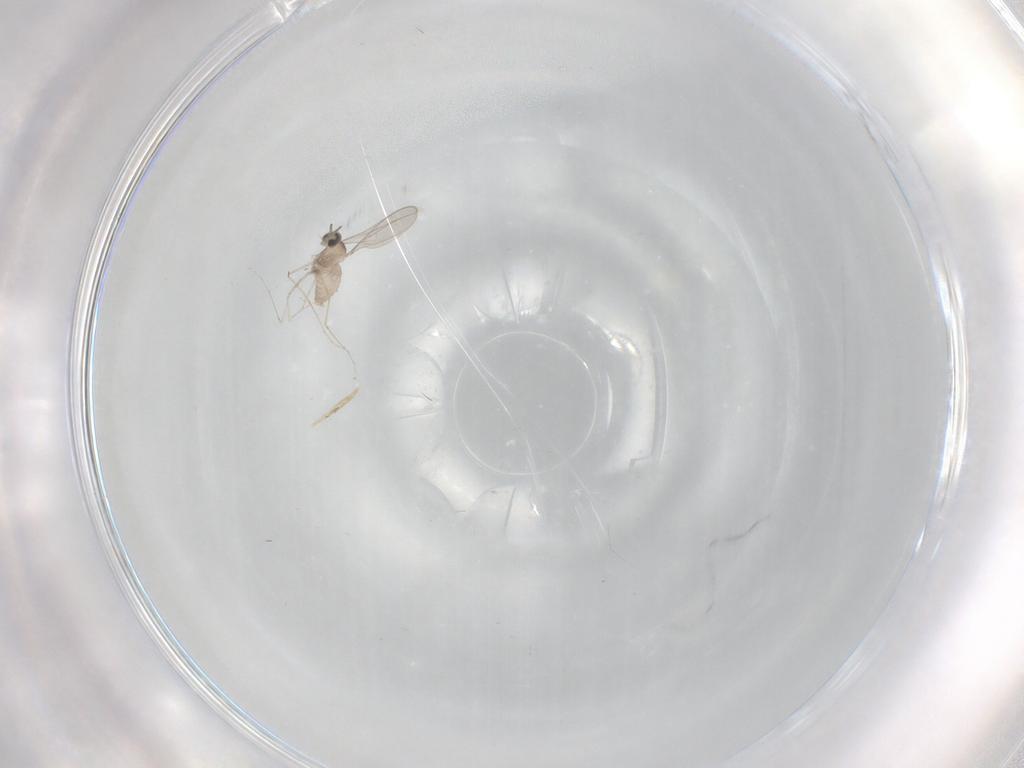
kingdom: Animalia
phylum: Arthropoda
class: Insecta
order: Diptera
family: Cecidomyiidae
